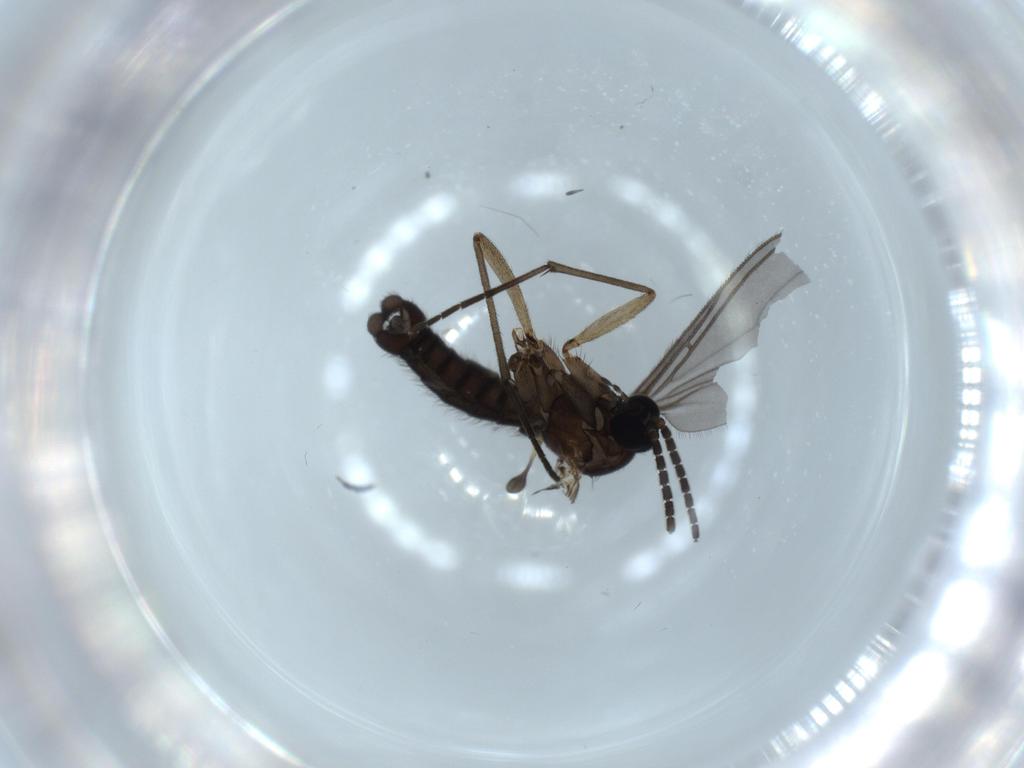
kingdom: Animalia
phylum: Arthropoda
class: Insecta
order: Diptera
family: Sciaridae
